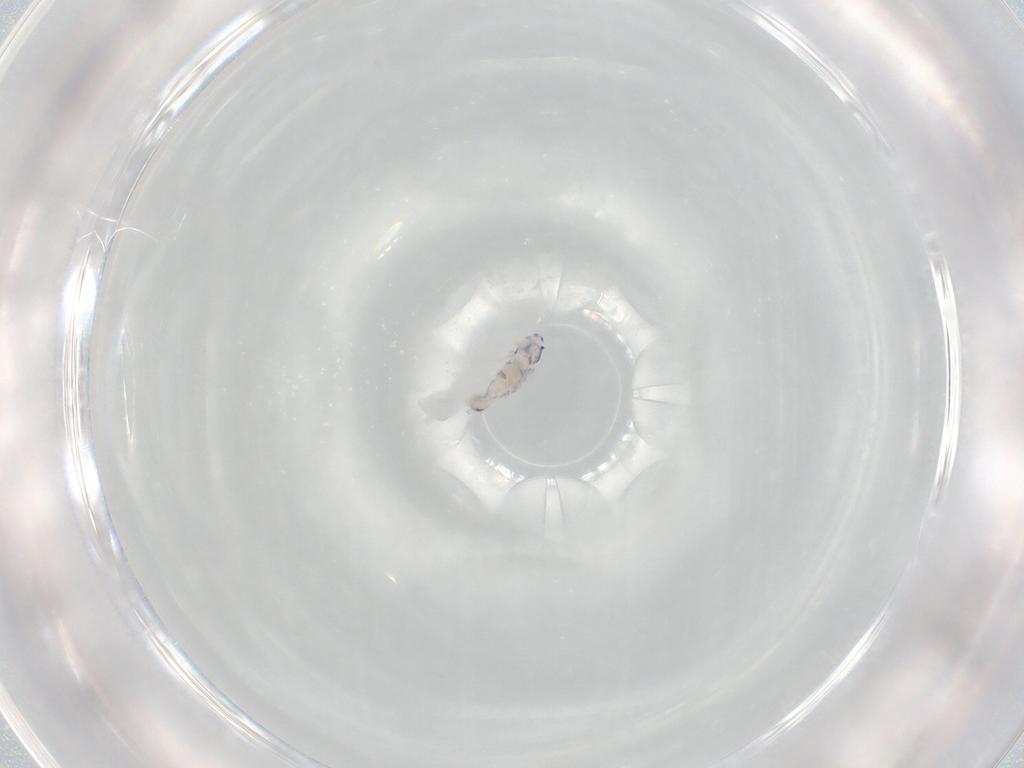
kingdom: Animalia
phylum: Arthropoda
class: Collembola
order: Entomobryomorpha
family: Entomobryidae
